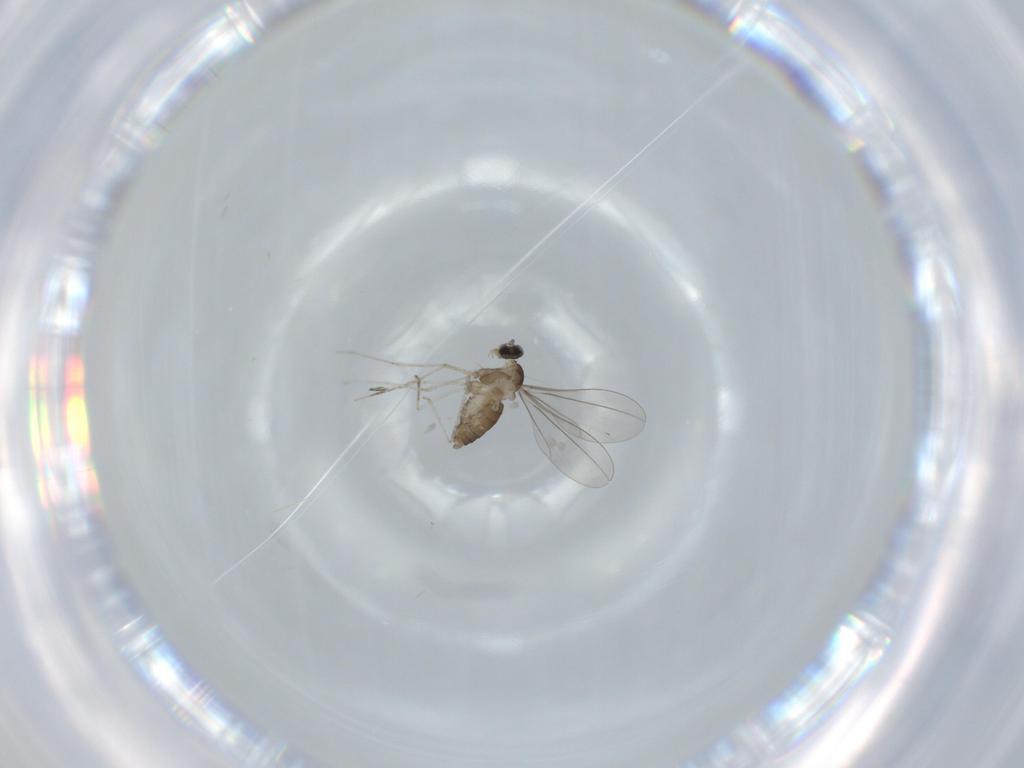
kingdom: Animalia
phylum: Arthropoda
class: Insecta
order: Diptera
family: Cecidomyiidae
